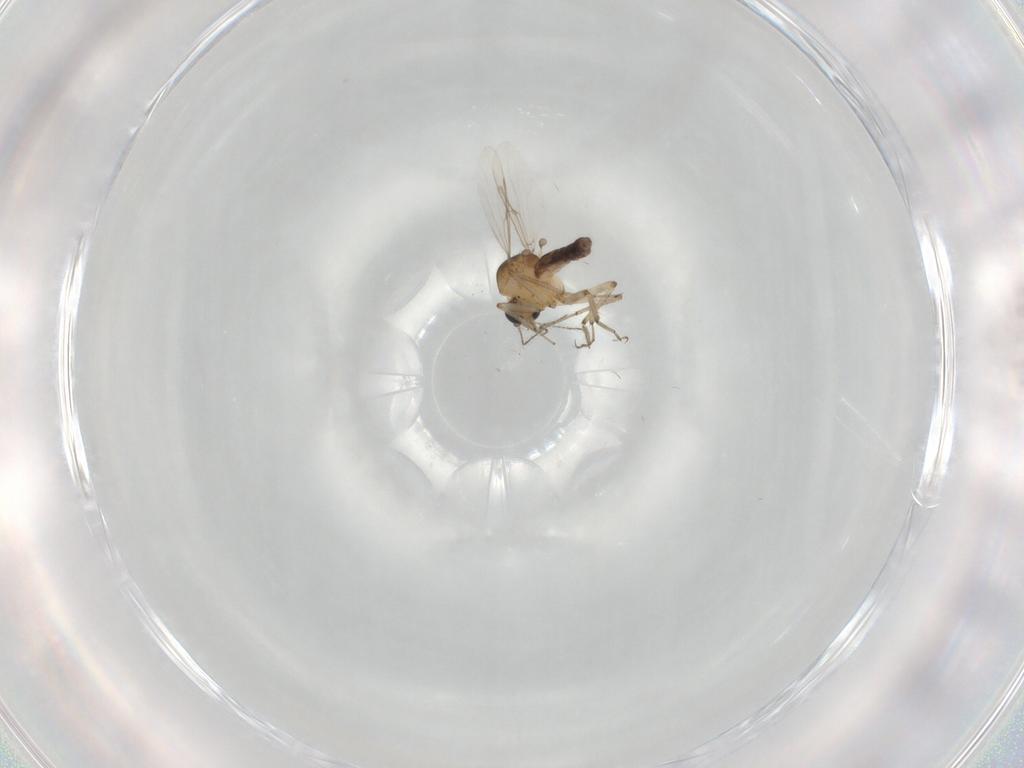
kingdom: Animalia
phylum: Arthropoda
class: Insecta
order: Diptera
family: Ceratopogonidae
